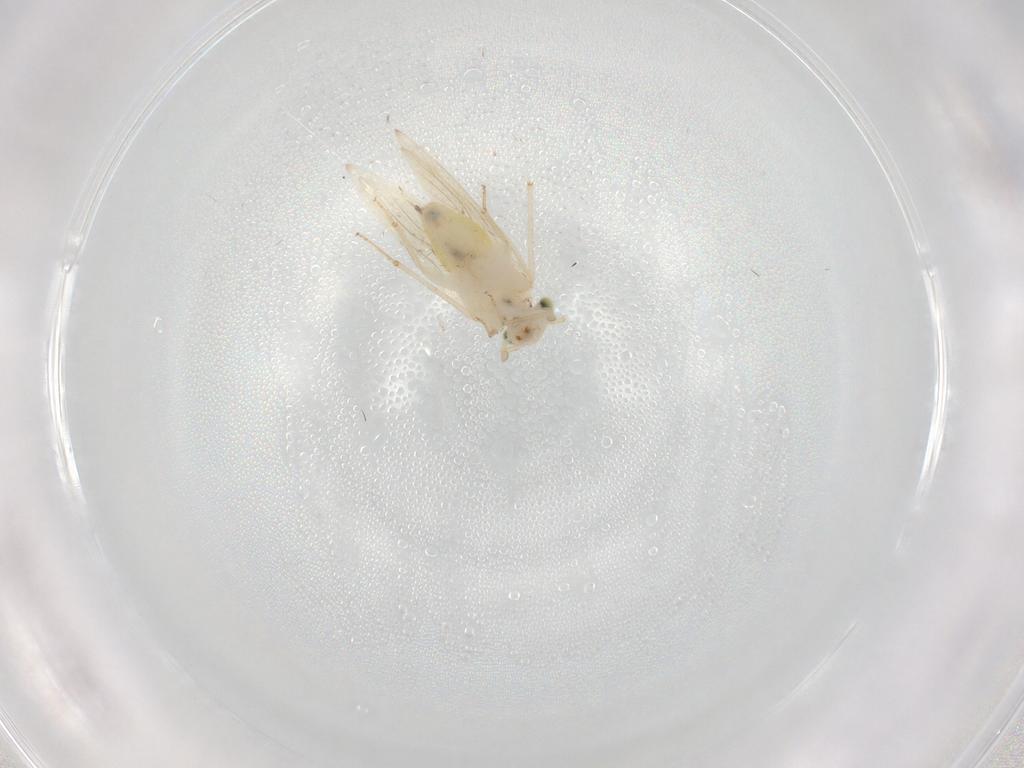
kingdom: Animalia
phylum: Arthropoda
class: Insecta
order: Psocodea
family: Lepidopsocidae
